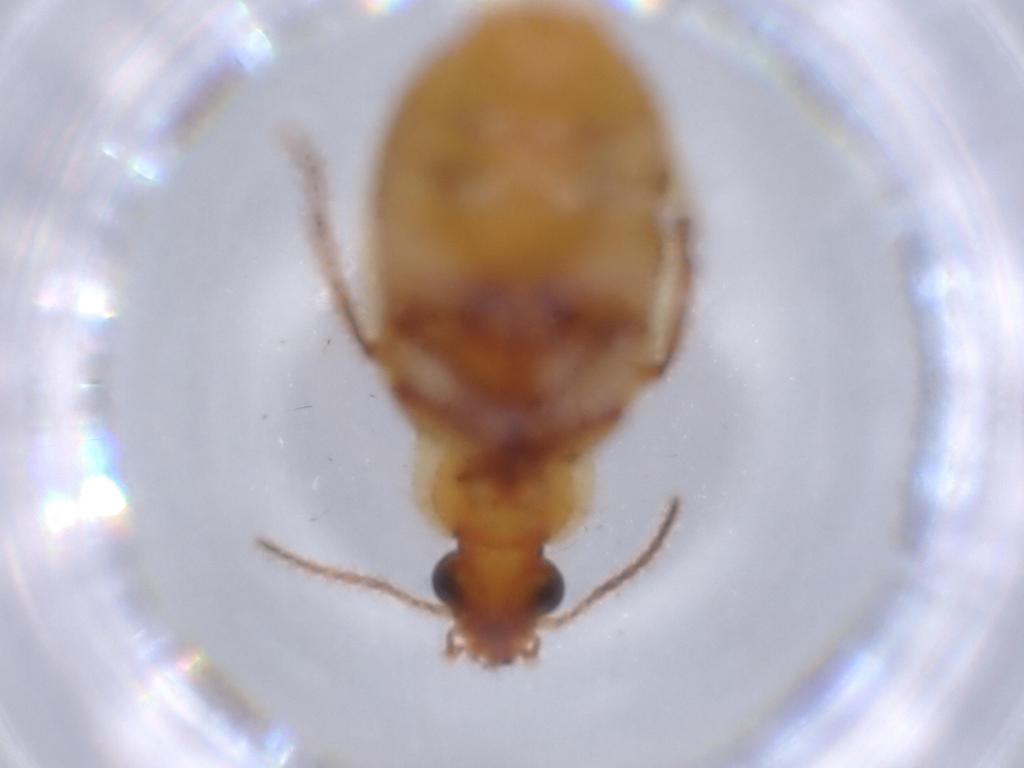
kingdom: Animalia
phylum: Arthropoda
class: Insecta
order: Coleoptera
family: Carabidae
